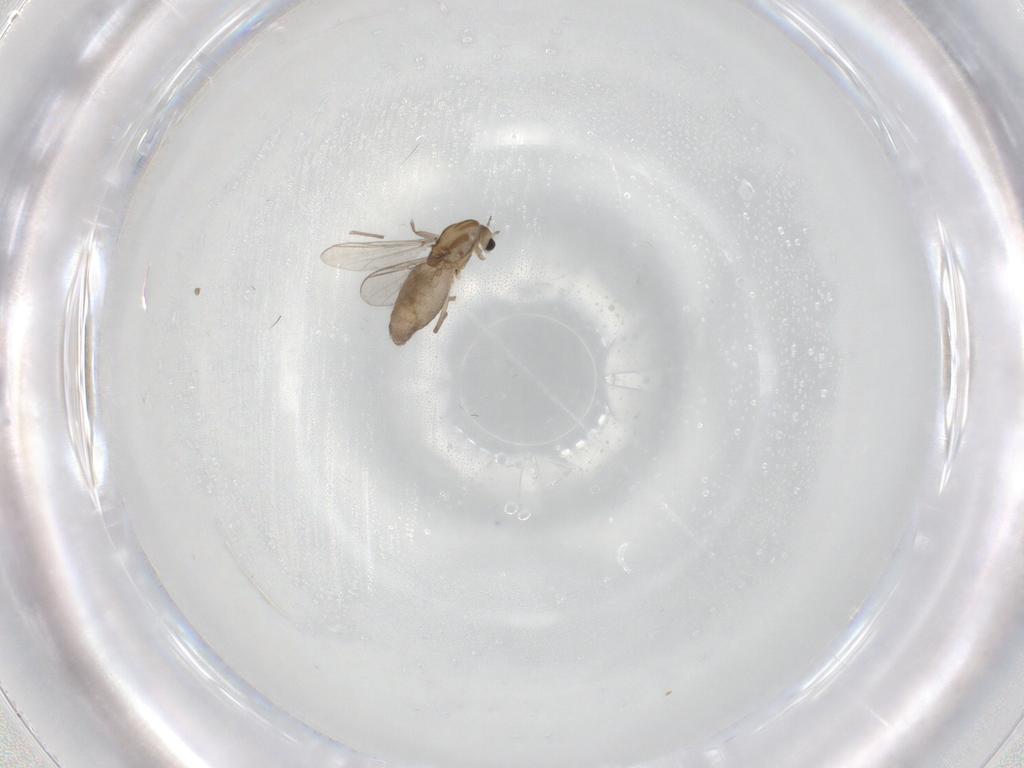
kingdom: Animalia
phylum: Arthropoda
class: Insecta
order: Diptera
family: Chironomidae
